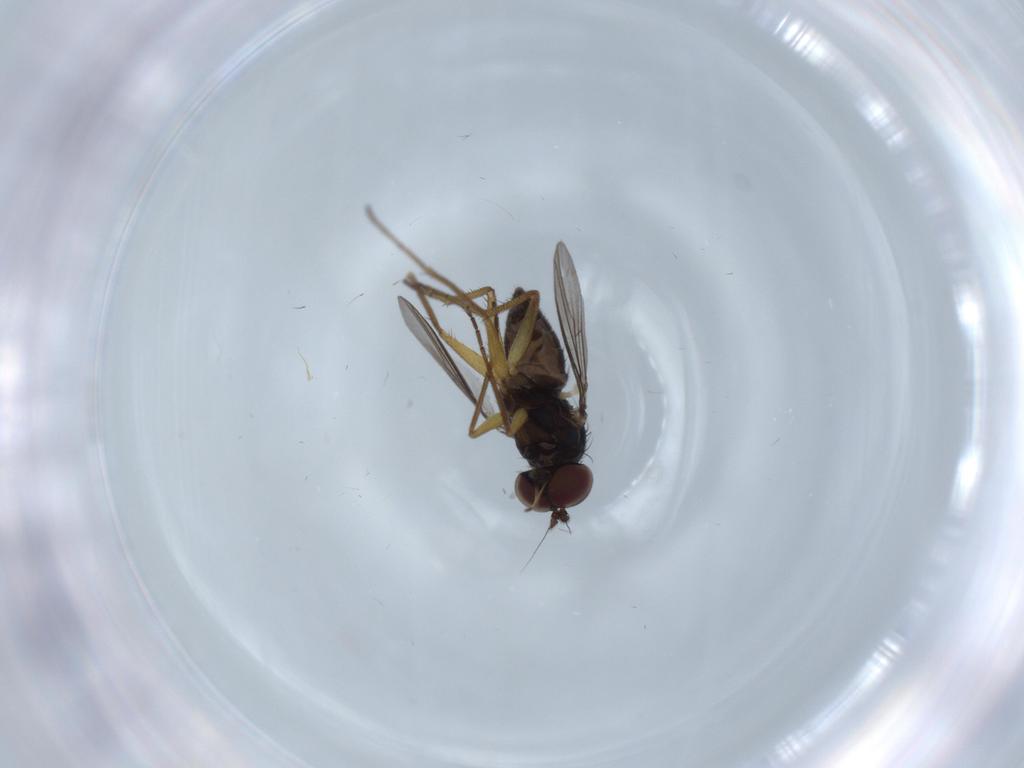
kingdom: Animalia
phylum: Arthropoda
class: Insecta
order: Diptera
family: Dolichopodidae
